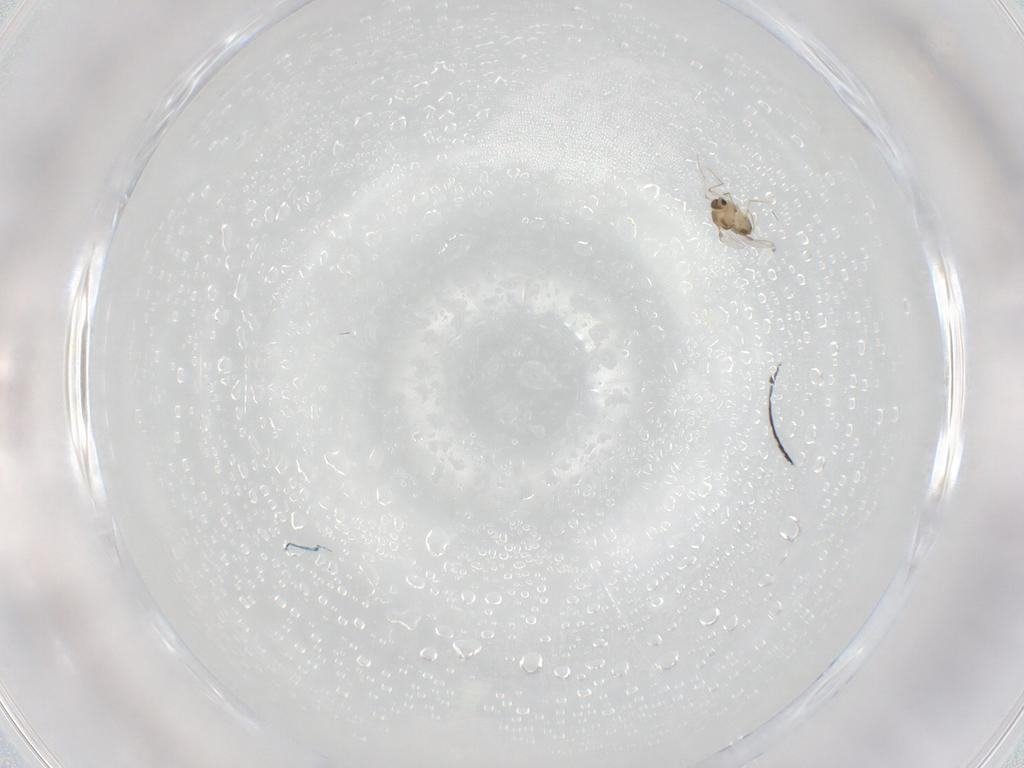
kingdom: Animalia
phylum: Arthropoda
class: Insecta
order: Diptera
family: Chironomidae
